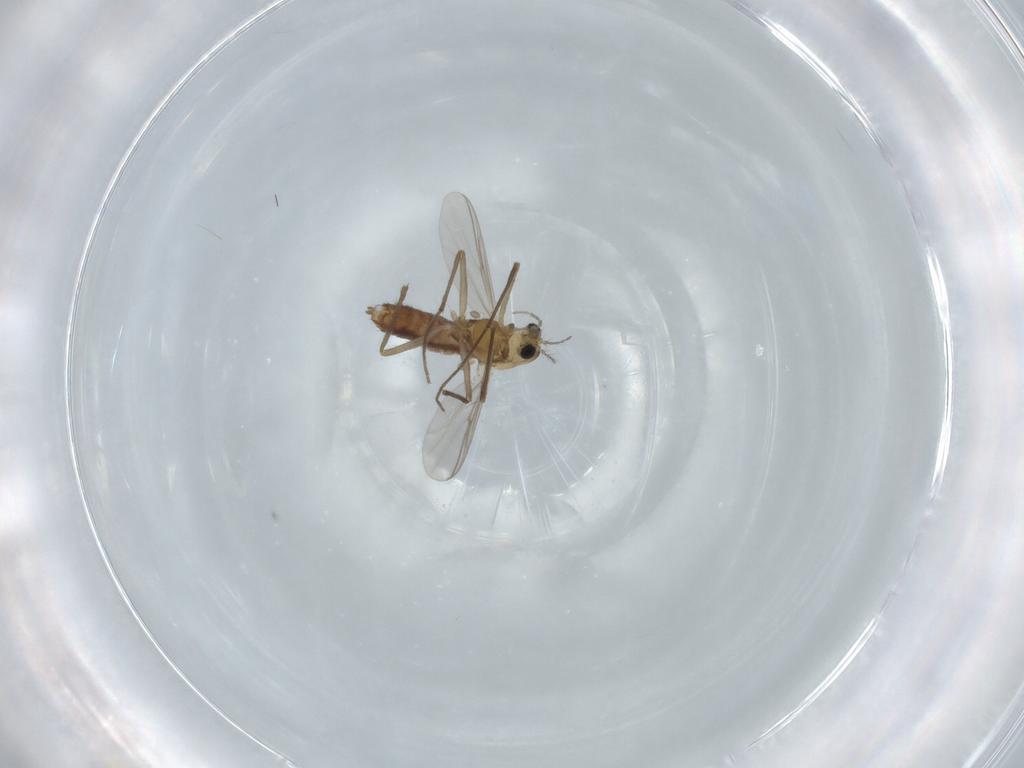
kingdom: Animalia
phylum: Arthropoda
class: Insecta
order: Diptera
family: Chironomidae
